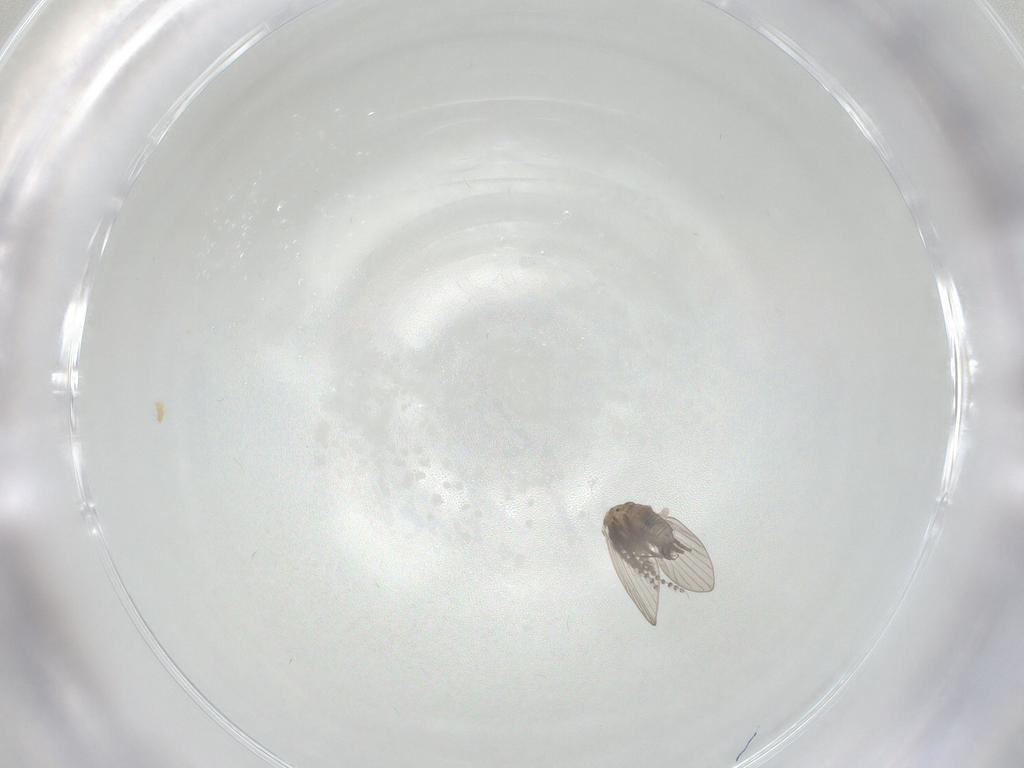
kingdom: Animalia
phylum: Arthropoda
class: Insecta
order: Diptera
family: Psychodidae
